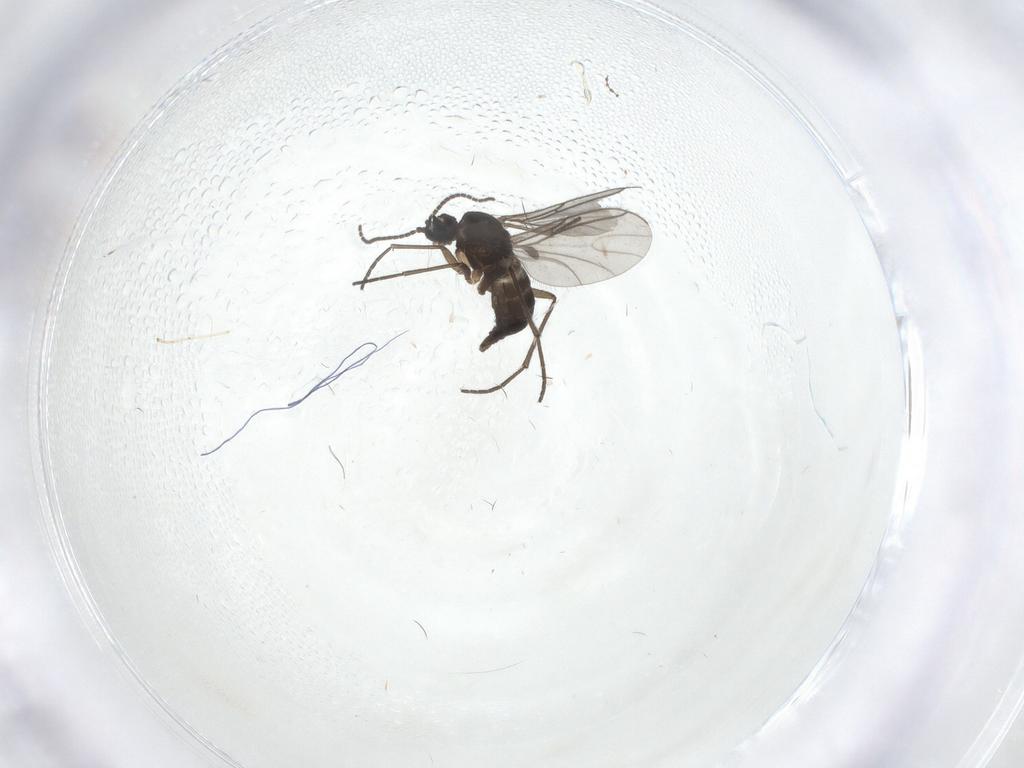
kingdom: Animalia
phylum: Arthropoda
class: Insecta
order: Diptera
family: Sciaridae
